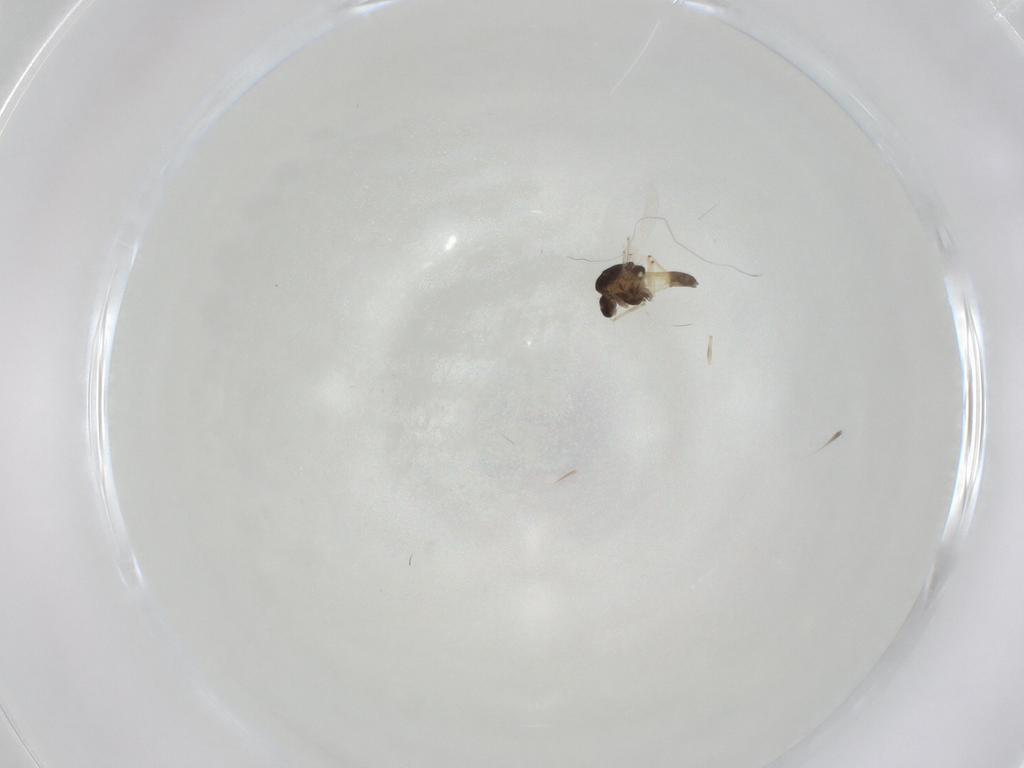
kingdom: Animalia
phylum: Arthropoda
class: Insecta
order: Diptera
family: Chironomidae
